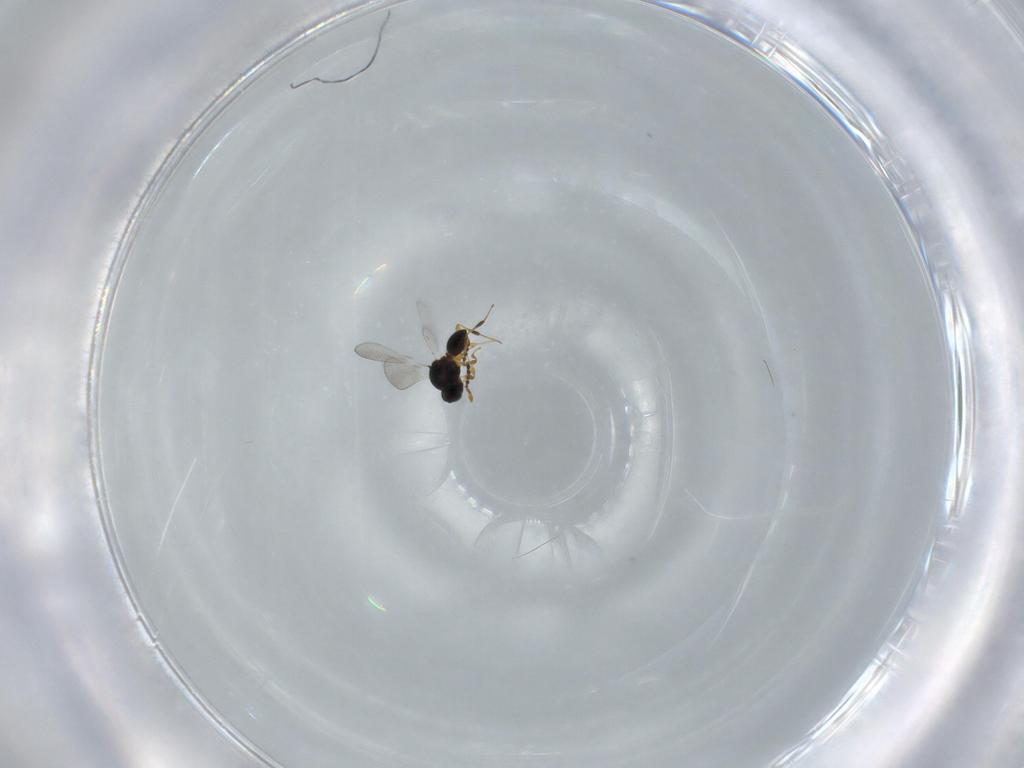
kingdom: Animalia
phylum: Arthropoda
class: Insecta
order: Hymenoptera
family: Platygastridae
